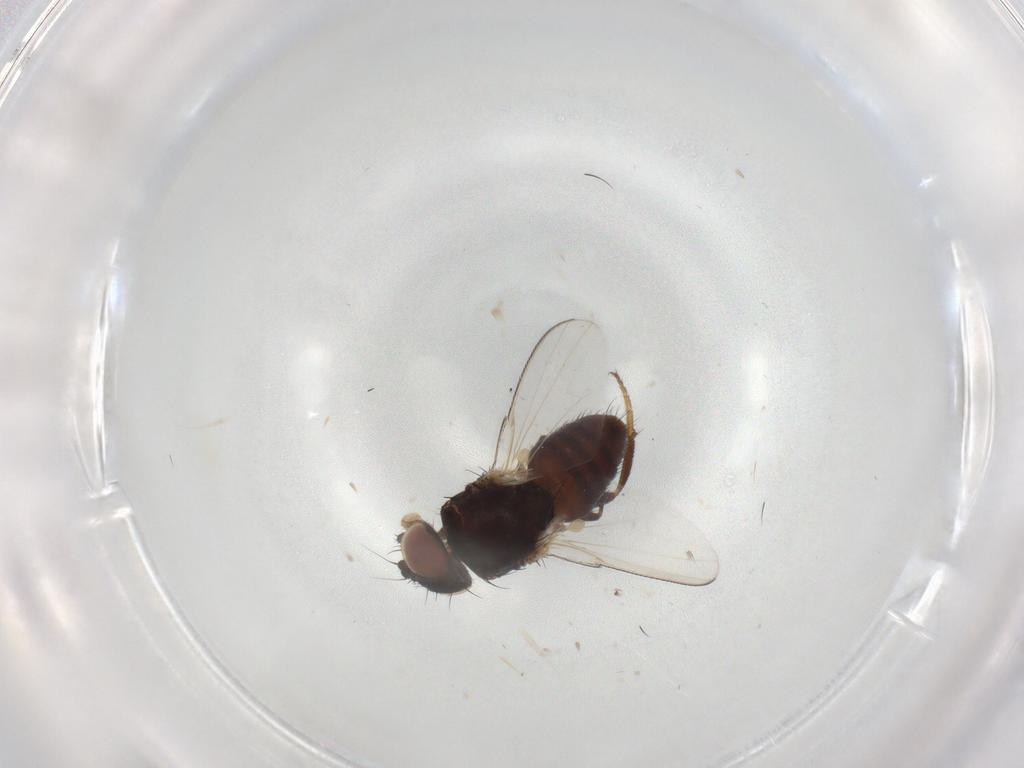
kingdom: Animalia
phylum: Arthropoda
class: Insecta
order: Diptera
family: Milichiidae
